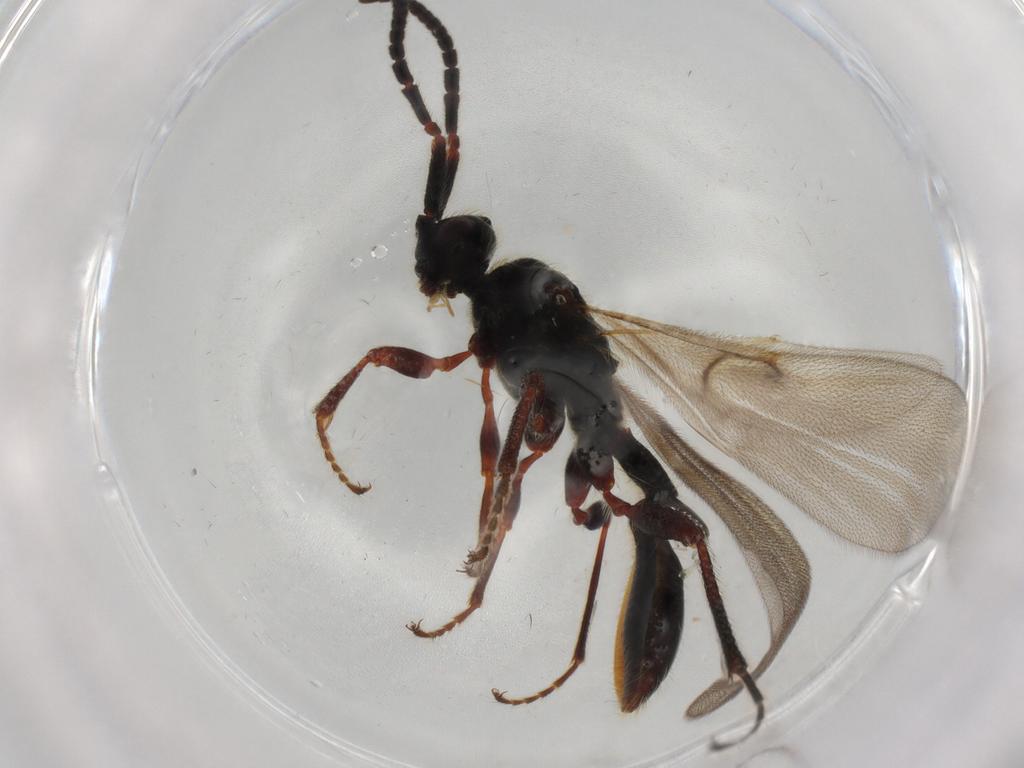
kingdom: Animalia
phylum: Arthropoda
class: Insecta
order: Hymenoptera
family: Diapriidae
